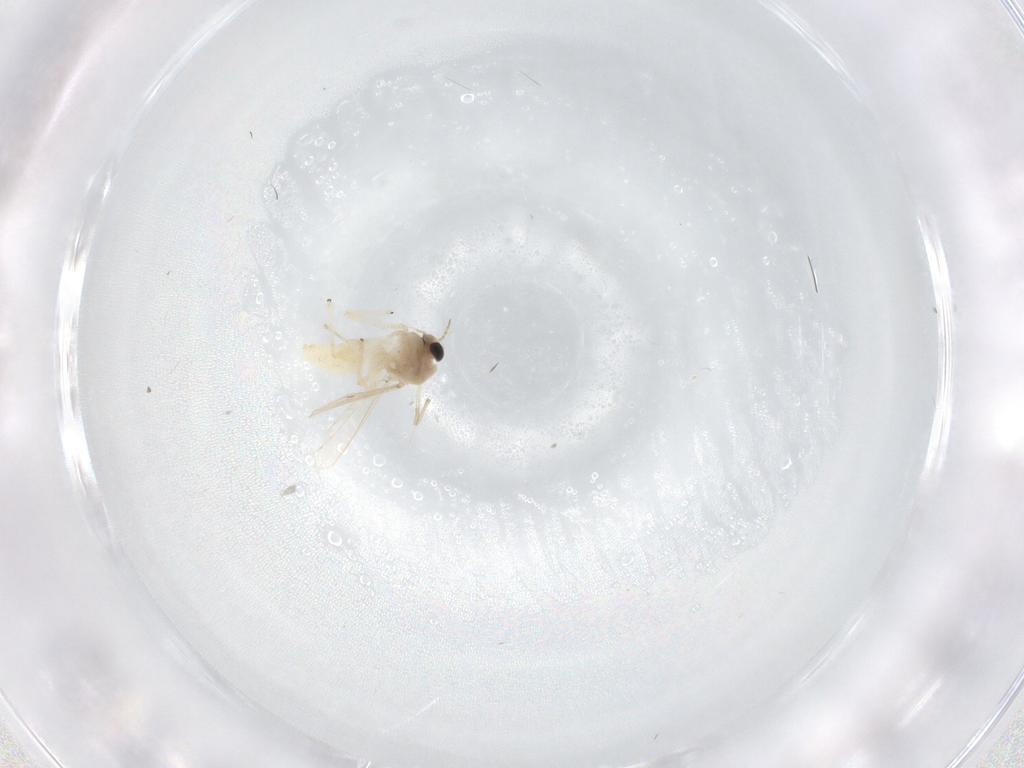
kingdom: Animalia
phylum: Arthropoda
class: Insecta
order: Diptera
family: Chironomidae
